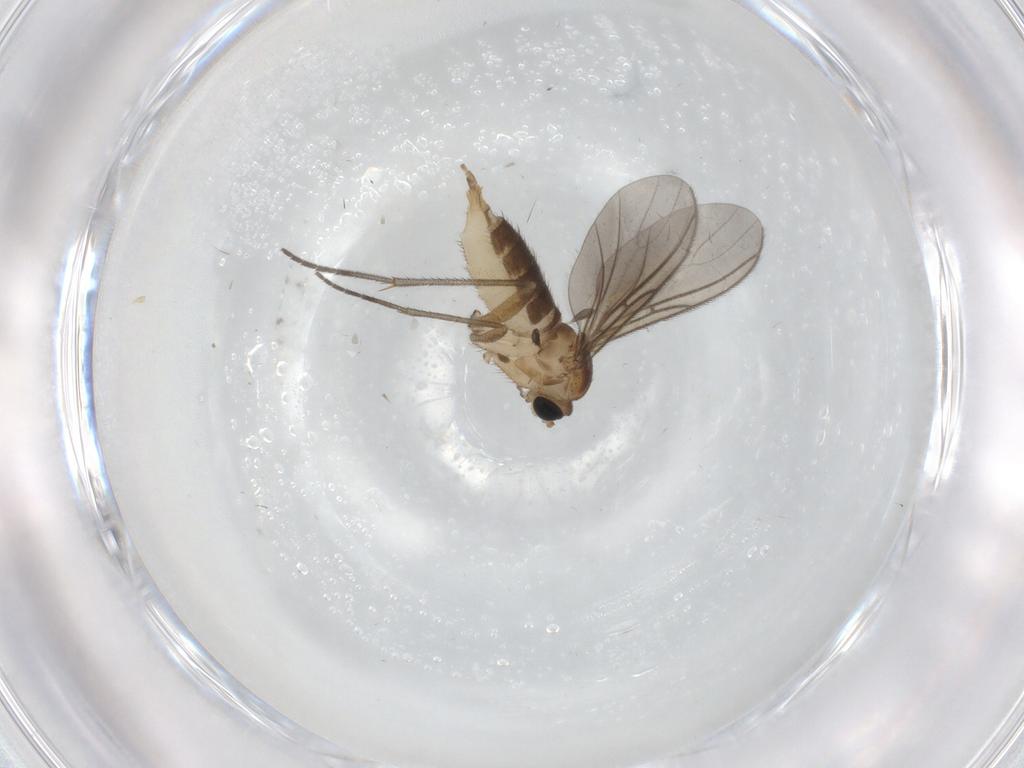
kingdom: Animalia
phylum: Arthropoda
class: Insecta
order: Diptera
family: Sciaridae
